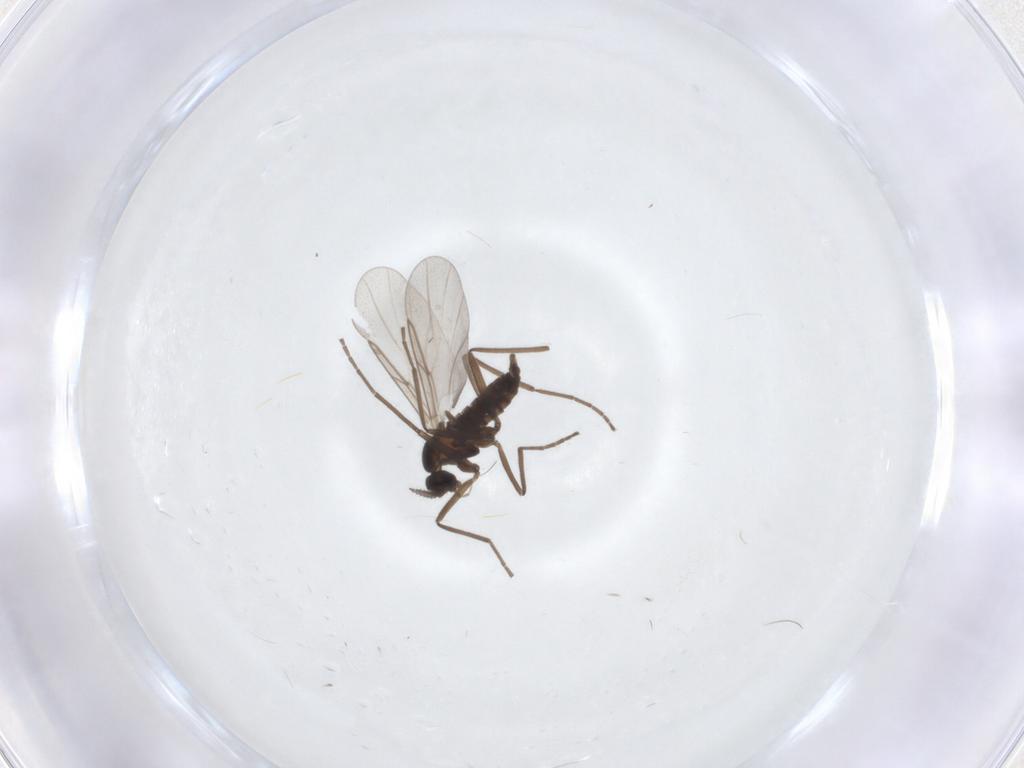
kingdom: Animalia
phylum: Arthropoda
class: Insecta
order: Diptera
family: Cecidomyiidae
